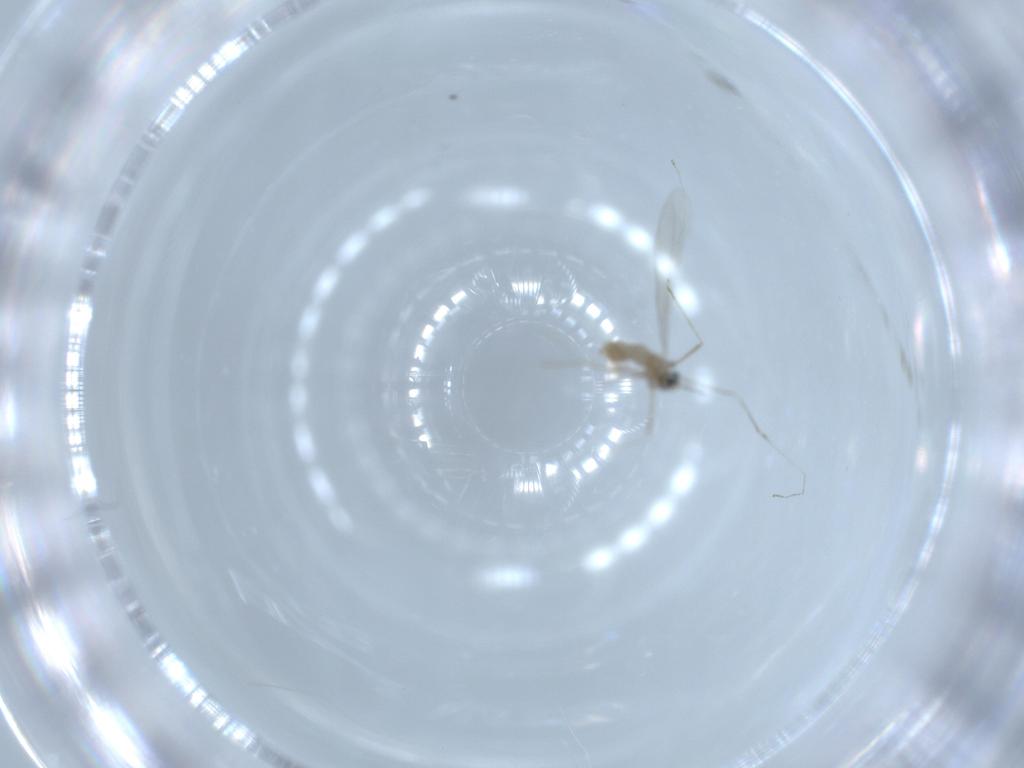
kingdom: Animalia
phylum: Arthropoda
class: Insecta
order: Diptera
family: Cecidomyiidae
